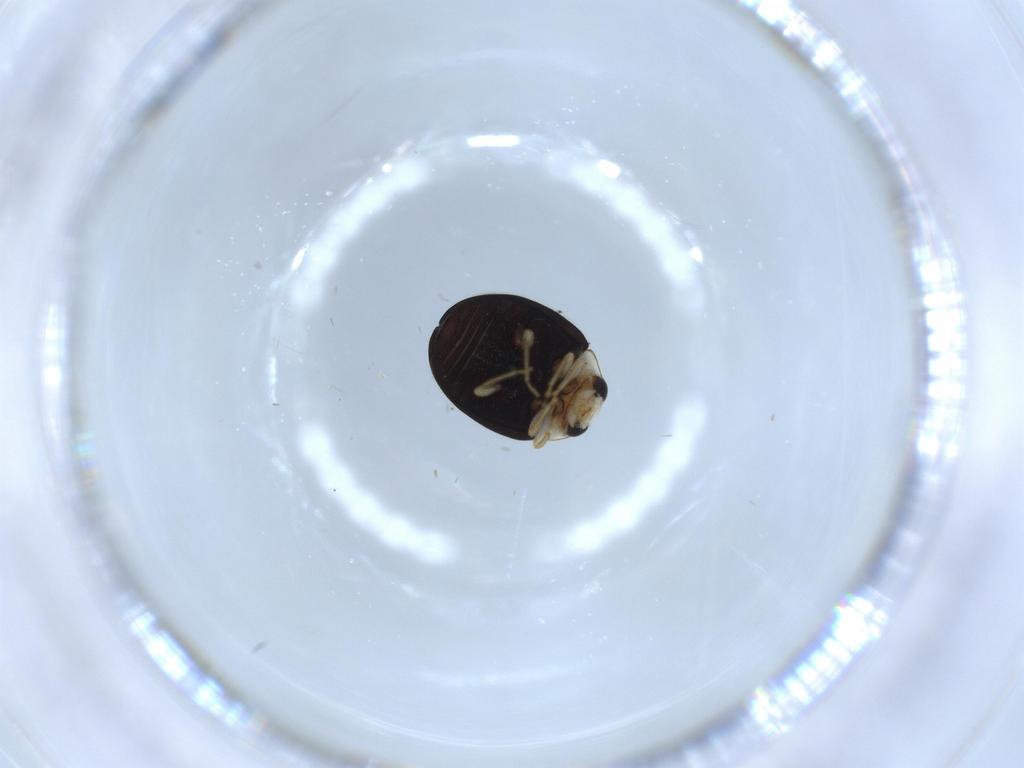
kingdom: Animalia
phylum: Arthropoda
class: Insecta
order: Coleoptera
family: Coccinellidae
